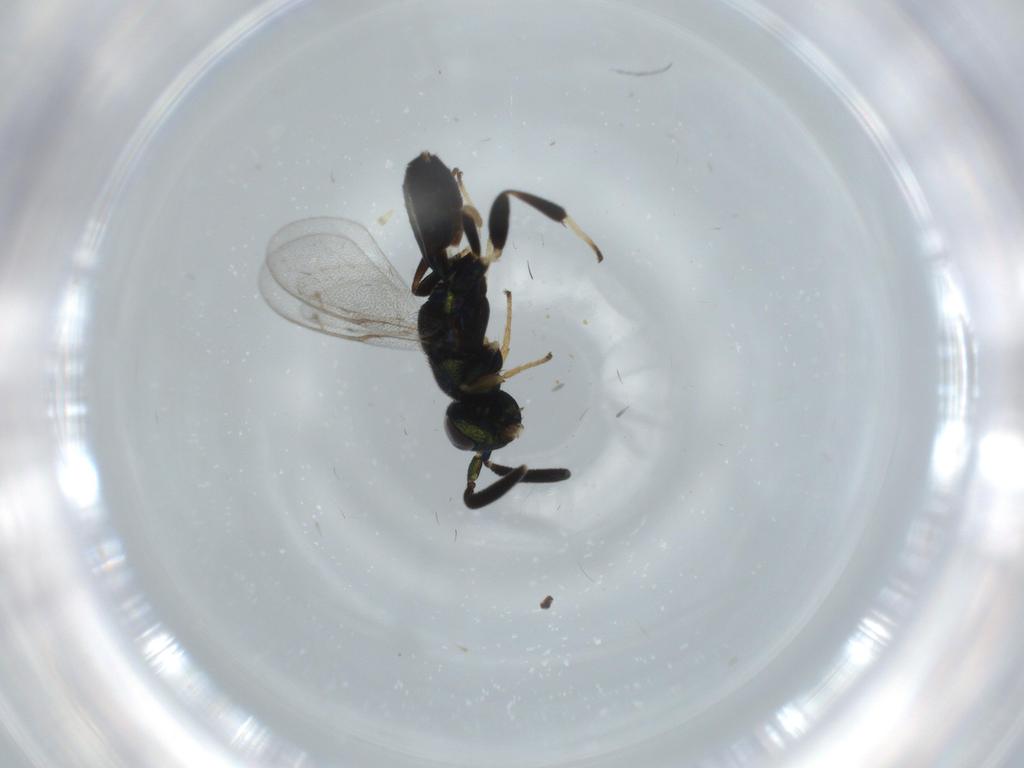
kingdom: Animalia
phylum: Arthropoda
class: Insecta
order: Hymenoptera
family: Eupelmidae
